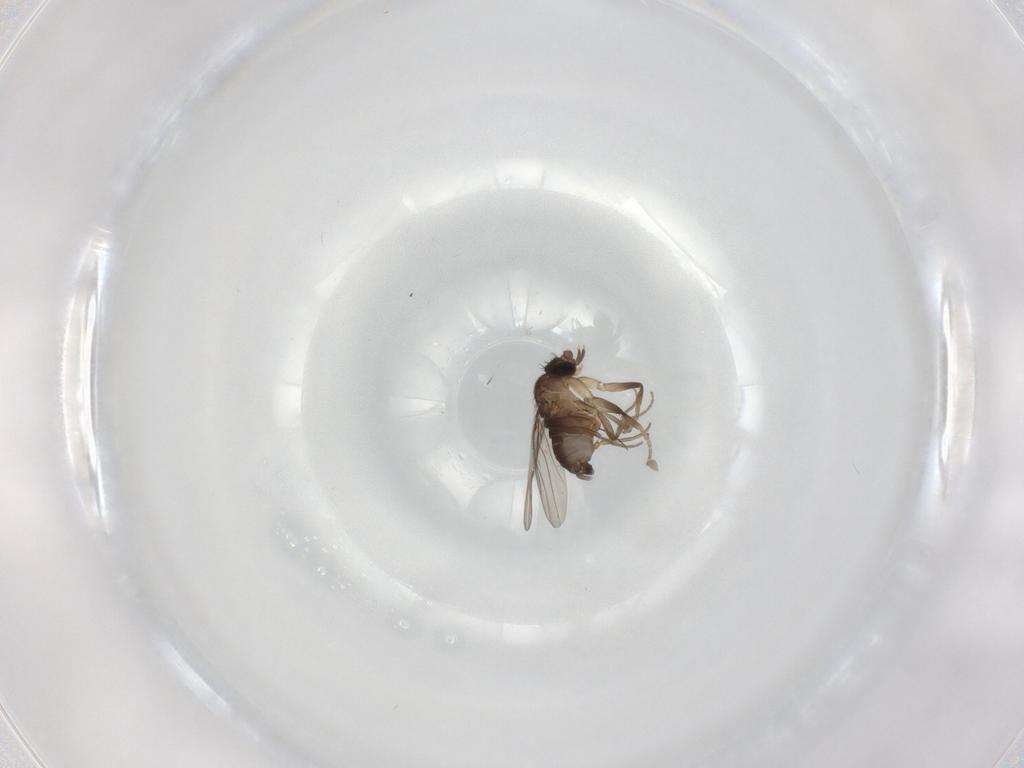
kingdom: Animalia
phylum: Arthropoda
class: Insecta
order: Diptera
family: Phoridae
